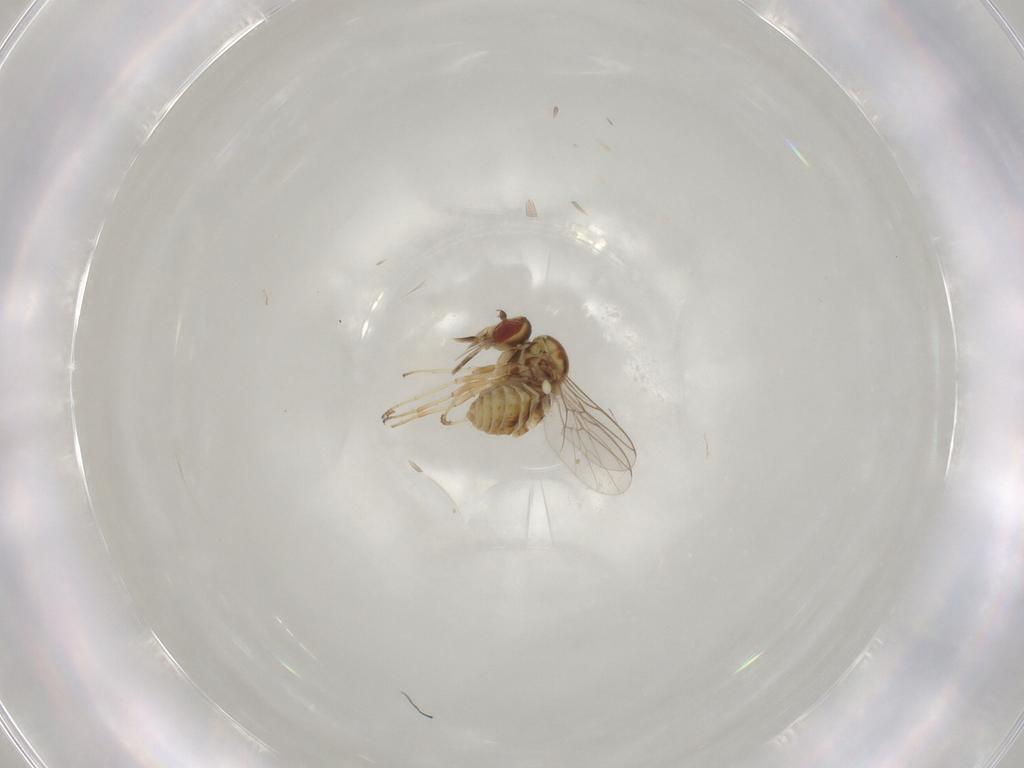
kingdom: Animalia
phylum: Arthropoda
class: Insecta
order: Diptera
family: Mythicomyiidae
